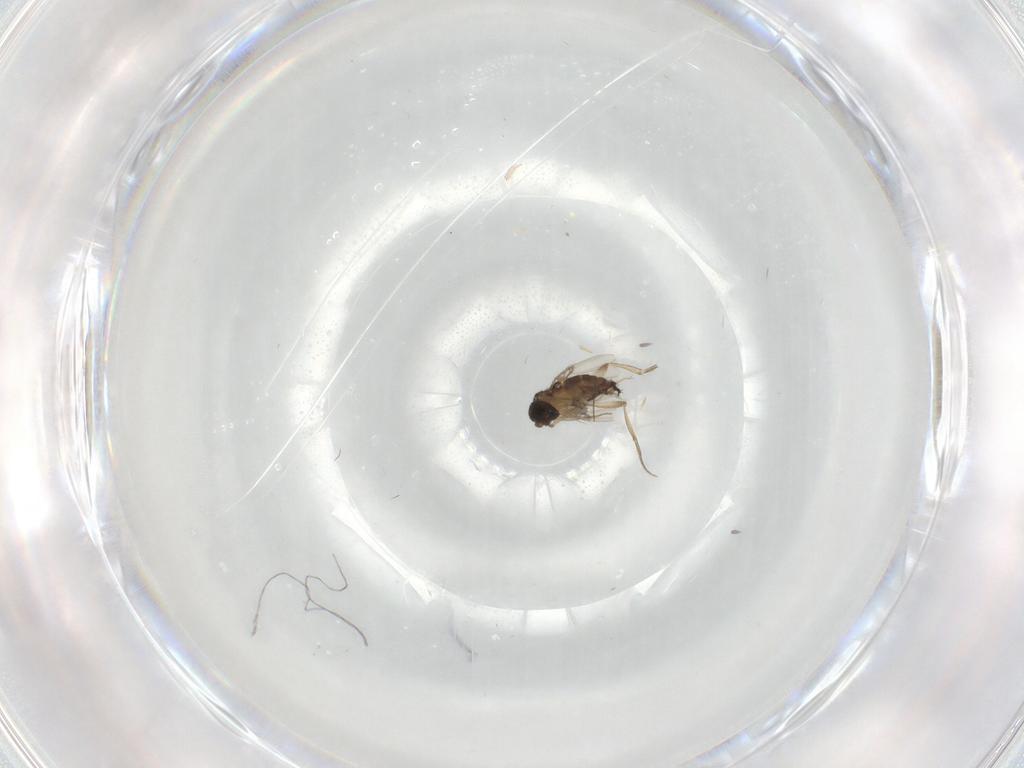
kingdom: Animalia
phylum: Arthropoda
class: Insecta
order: Diptera
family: Phoridae
